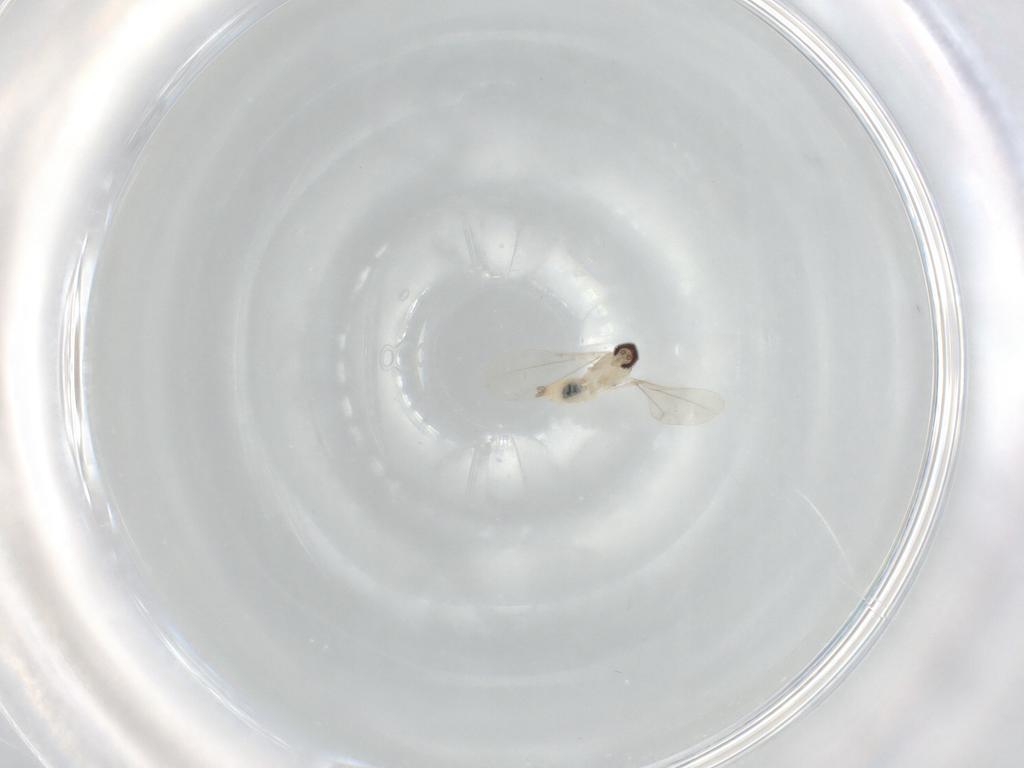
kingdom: Animalia
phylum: Arthropoda
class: Insecta
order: Diptera
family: Cecidomyiidae
